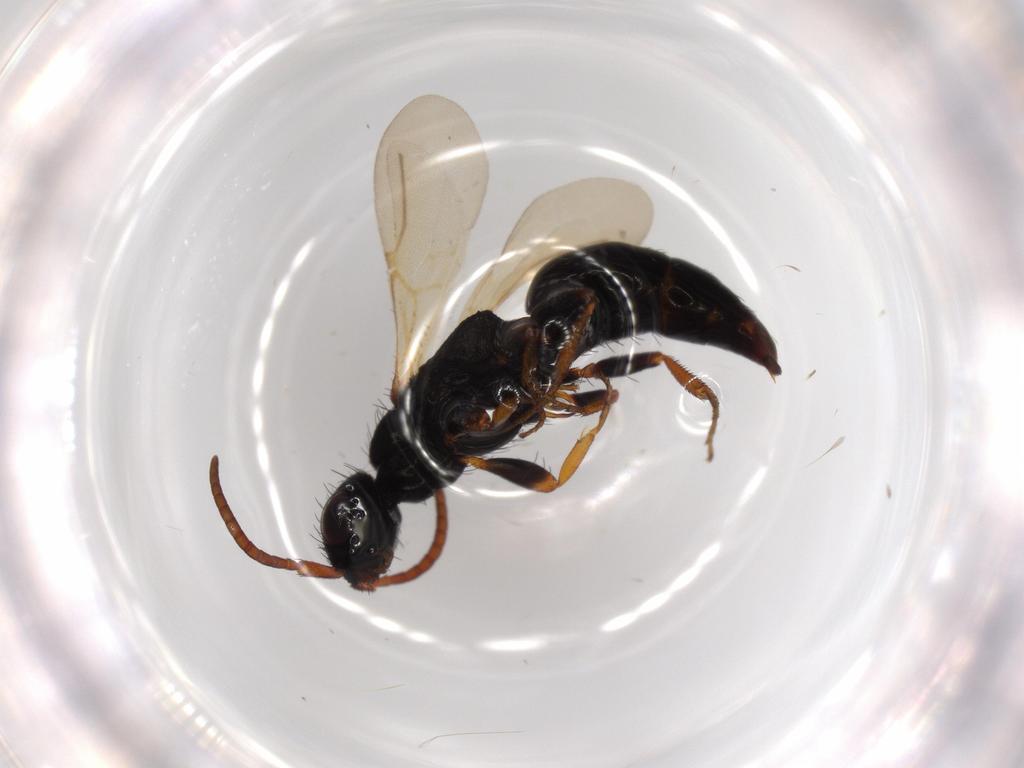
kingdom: Animalia
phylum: Arthropoda
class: Insecta
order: Hymenoptera
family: Bethylidae
